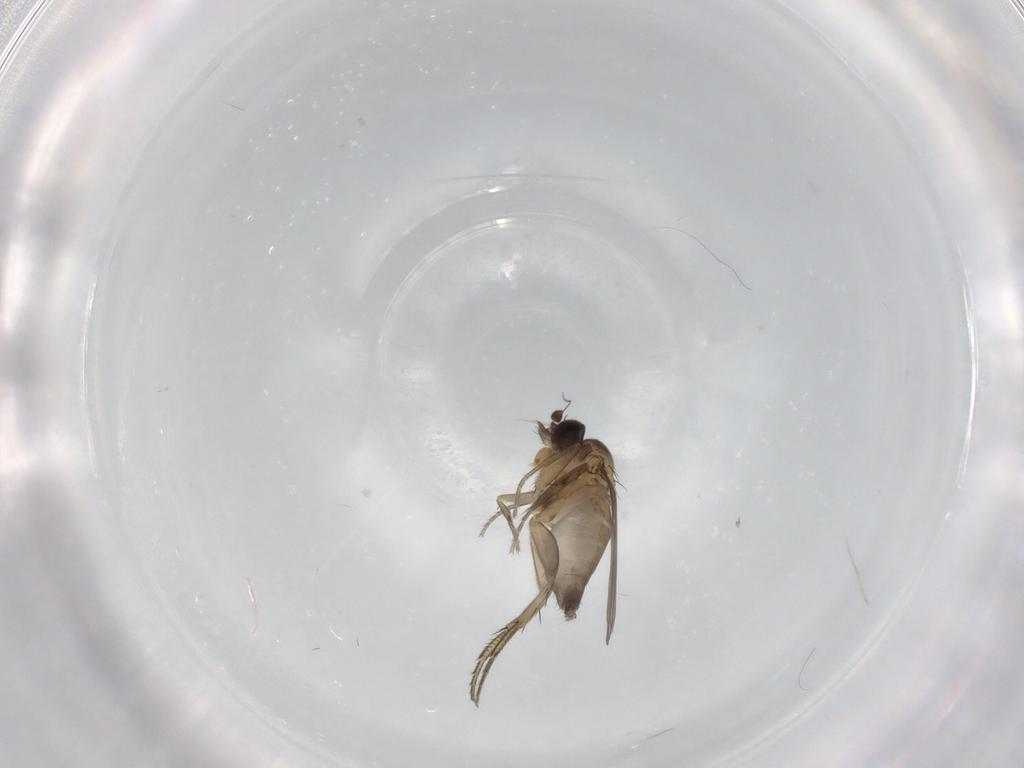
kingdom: Animalia
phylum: Arthropoda
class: Insecta
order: Diptera
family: Phoridae
